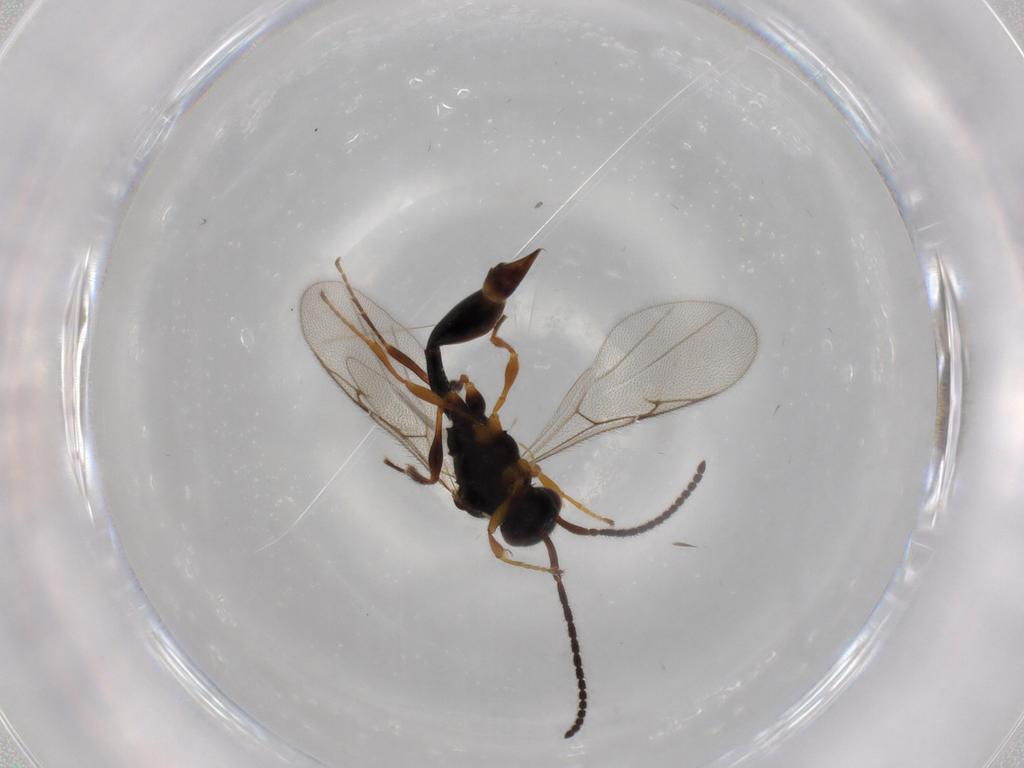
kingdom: Animalia
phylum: Arthropoda
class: Insecta
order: Hymenoptera
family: Diapriidae
